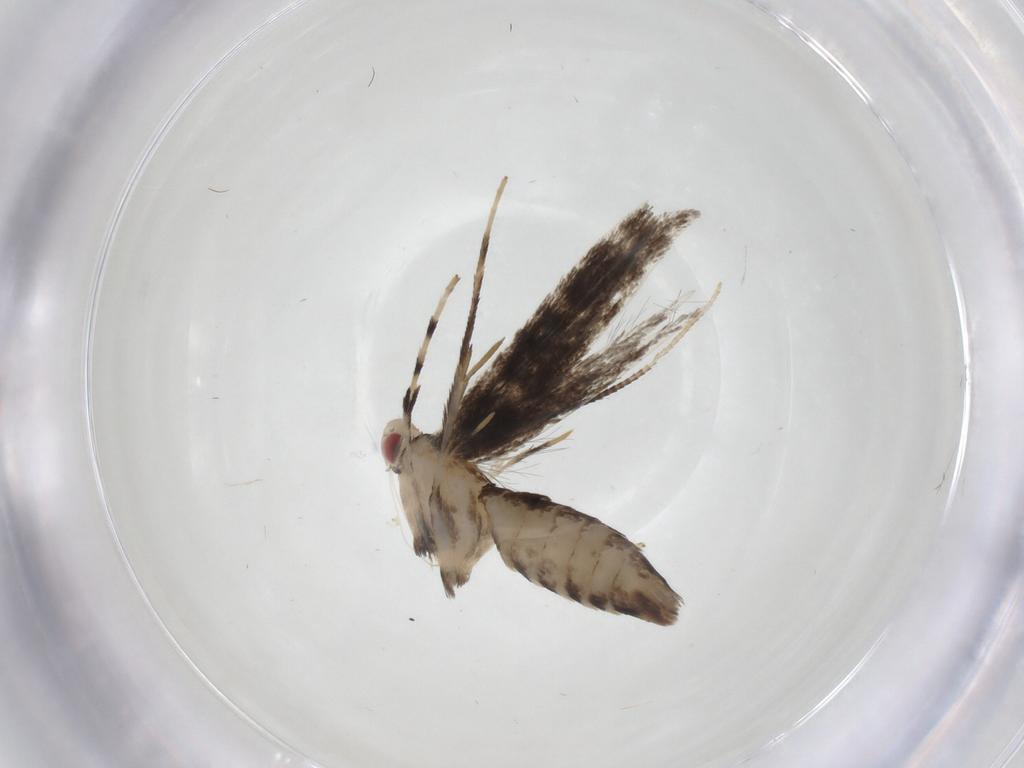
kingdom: Animalia
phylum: Arthropoda
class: Insecta
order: Lepidoptera
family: Gracillariidae
